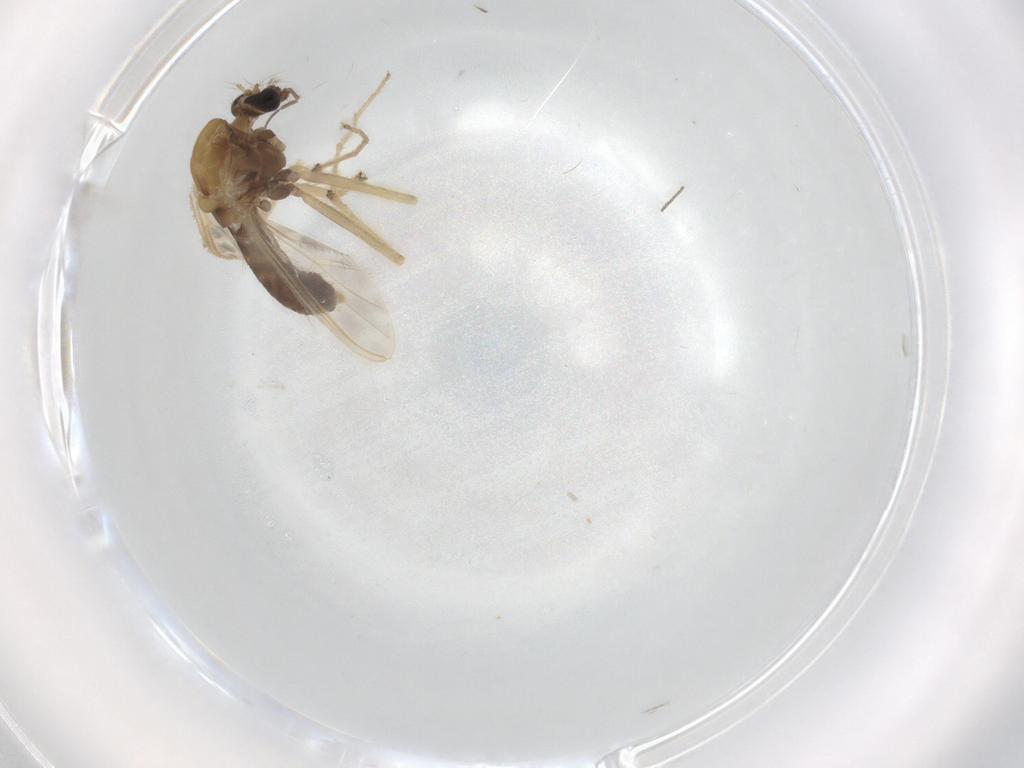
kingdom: Animalia
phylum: Arthropoda
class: Insecta
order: Diptera
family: Chironomidae
